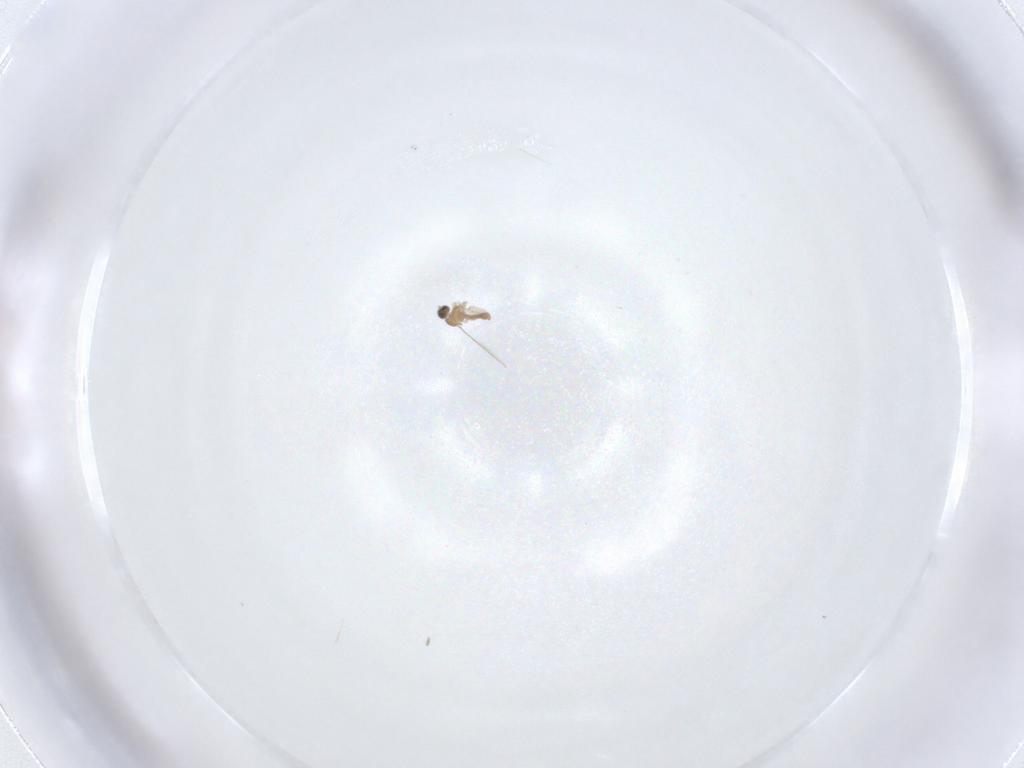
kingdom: Animalia
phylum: Arthropoda
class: Insecta
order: Diptera
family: Cecidomyiidae
